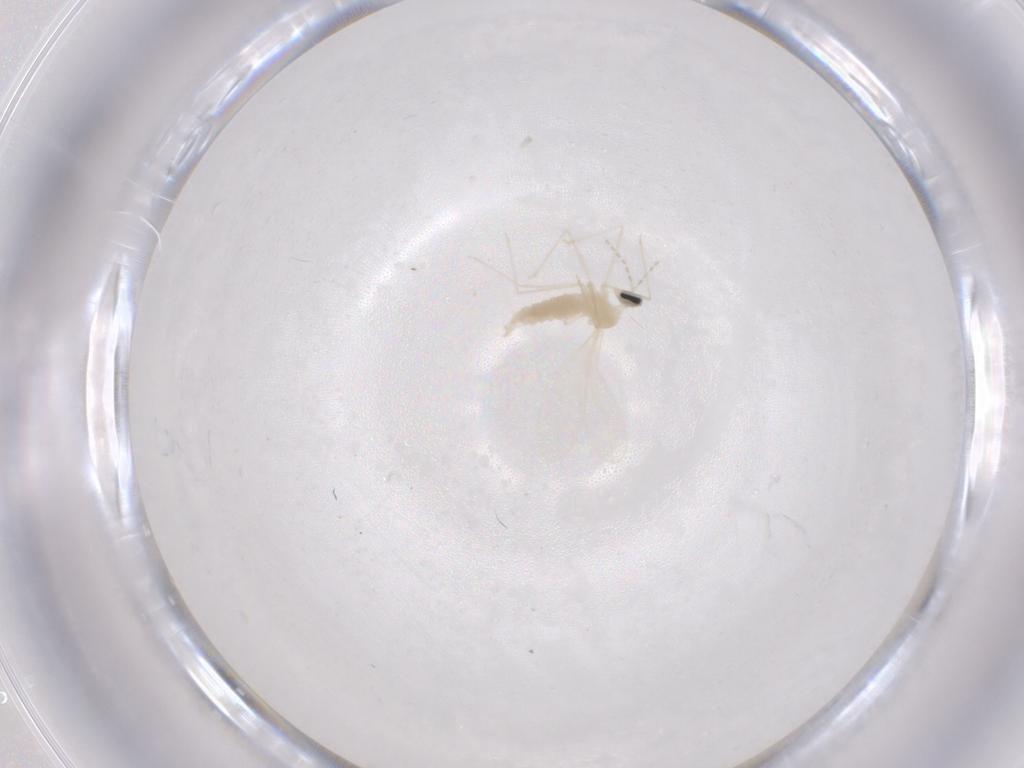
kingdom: Animalia
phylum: Arthropoda
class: Insecta
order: Diptera
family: Cecidomyiidae
